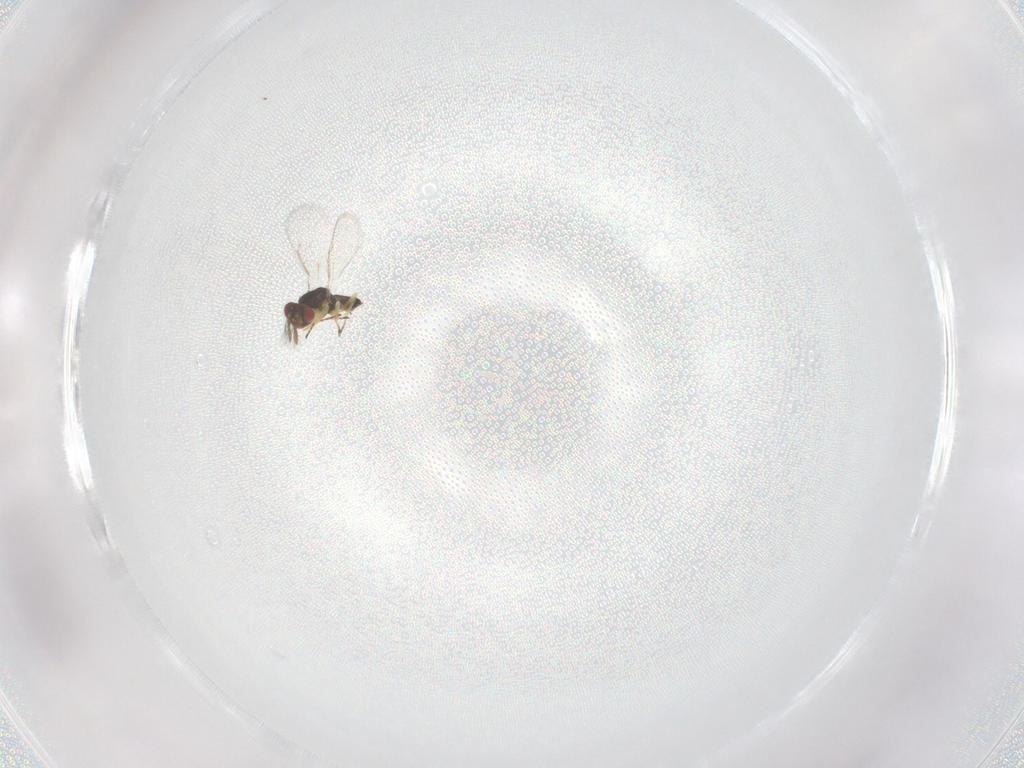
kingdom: Animalia
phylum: Arthropoda
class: Insecta
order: Hymenoptera
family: Eulophidae
